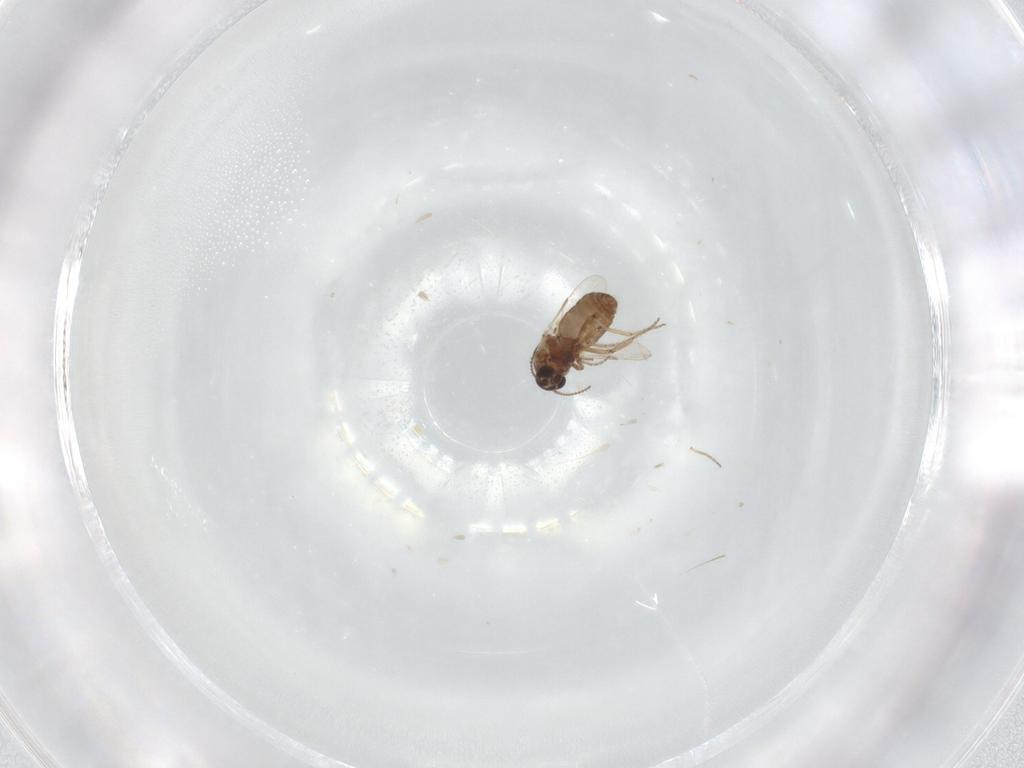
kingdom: Animalia
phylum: Arthropoda
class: Insecta
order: Diptera
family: Ceratopogonidae
